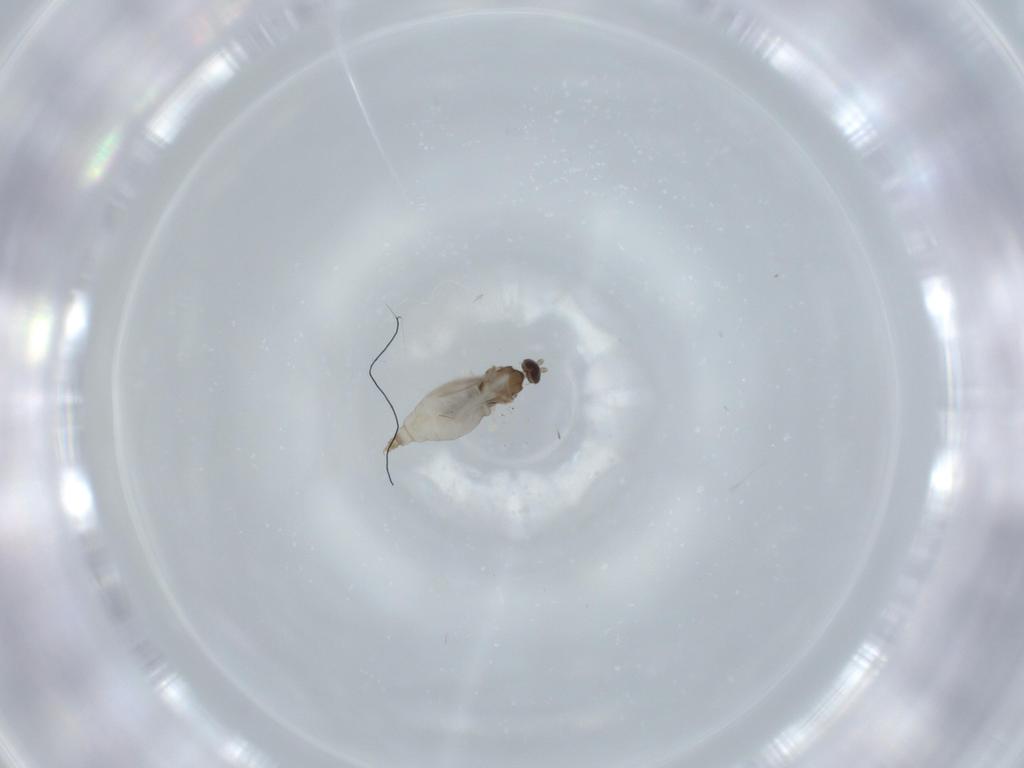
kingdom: Animalia
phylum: Arthropoda
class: Insecta
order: Diptera
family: Cecidomyiidae
